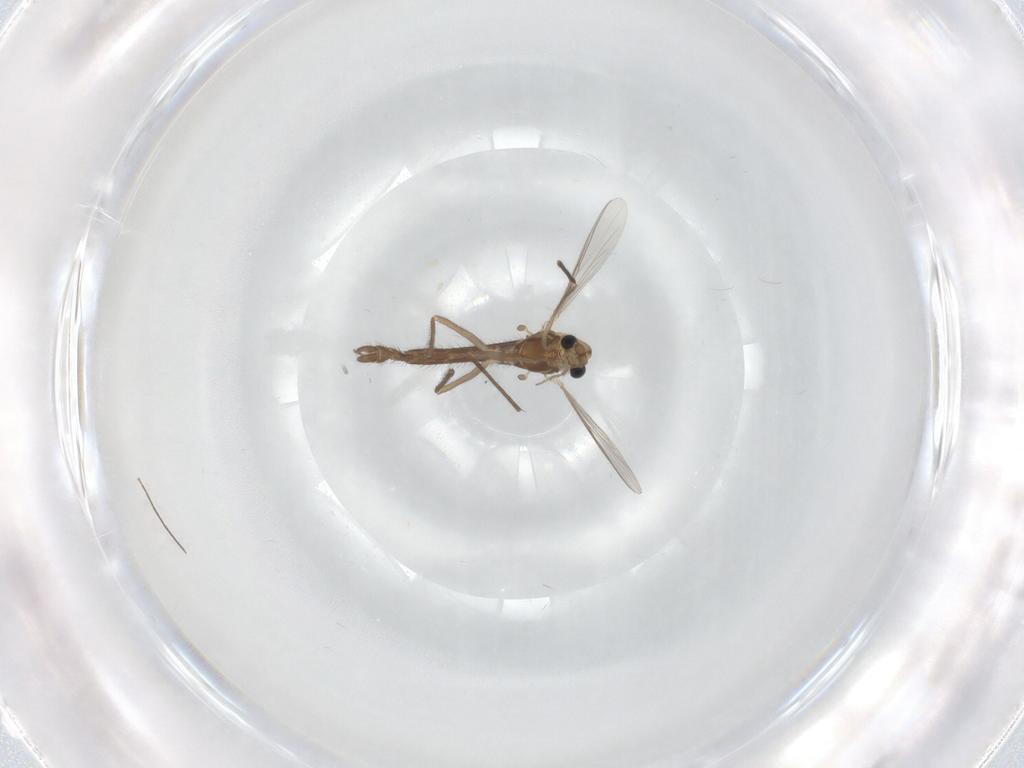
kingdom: Animalia
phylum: Arthropoda
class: Insecta
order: Diptera
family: Chironomidae
